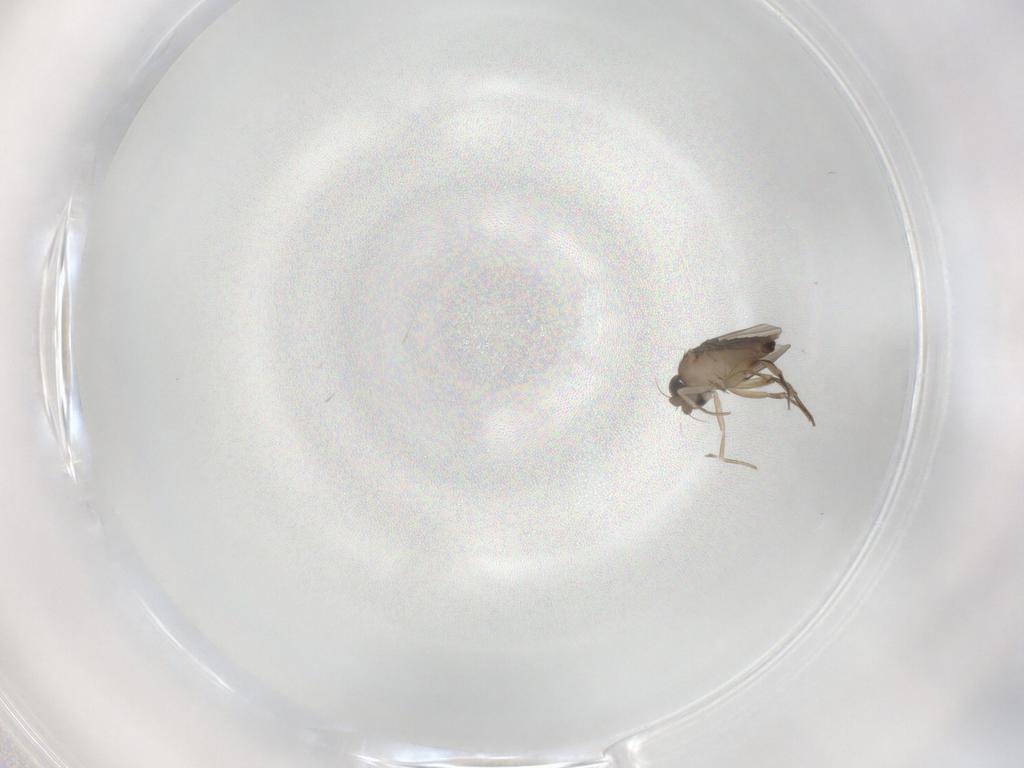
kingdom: Animalia
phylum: Arthropoda
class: Insecta
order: Diptera
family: Phoridae
